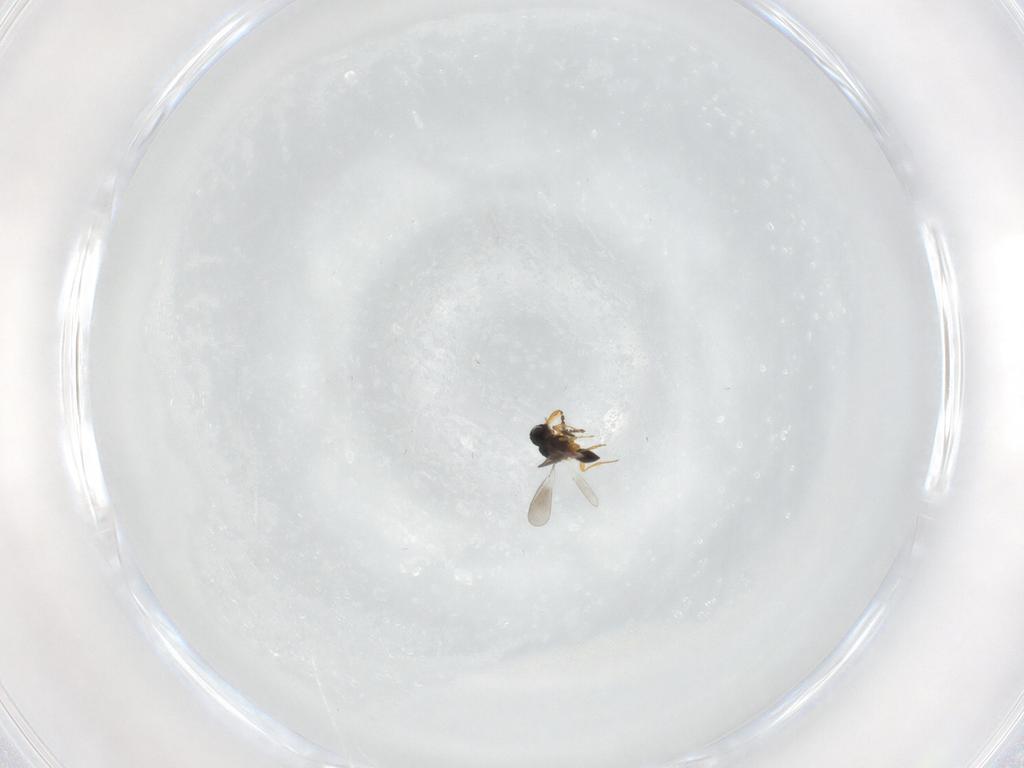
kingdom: Animalia
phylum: Arthropoda
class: Insecta
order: Hymenoptera
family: Platygastridae
